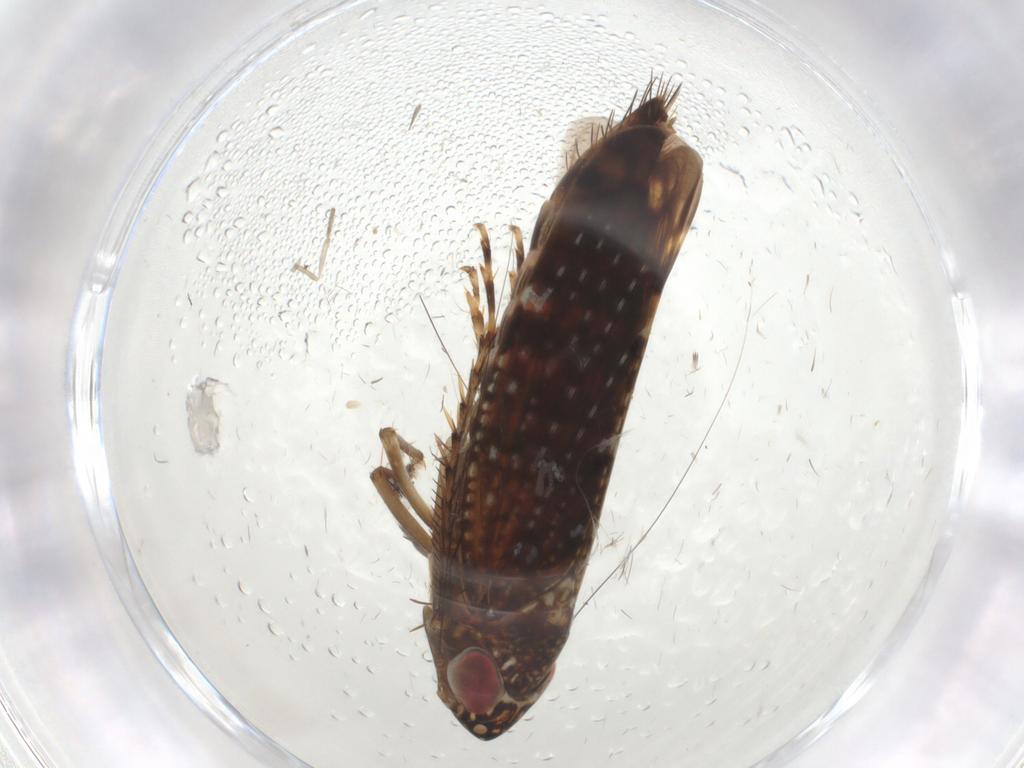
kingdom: Animalia
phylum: Arthropoda
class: Insecta
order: Hemiptera
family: Cicadellidae
